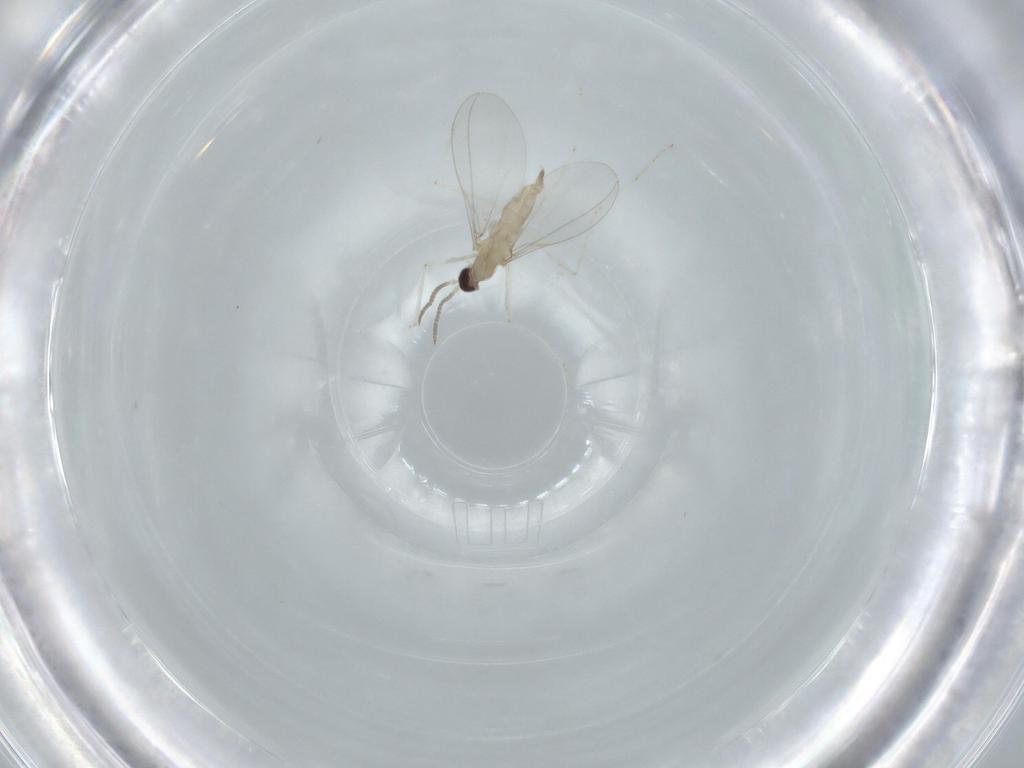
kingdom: Animalia
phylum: Arthropoda
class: Insecta
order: Diptera
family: Cecidomyiidae
